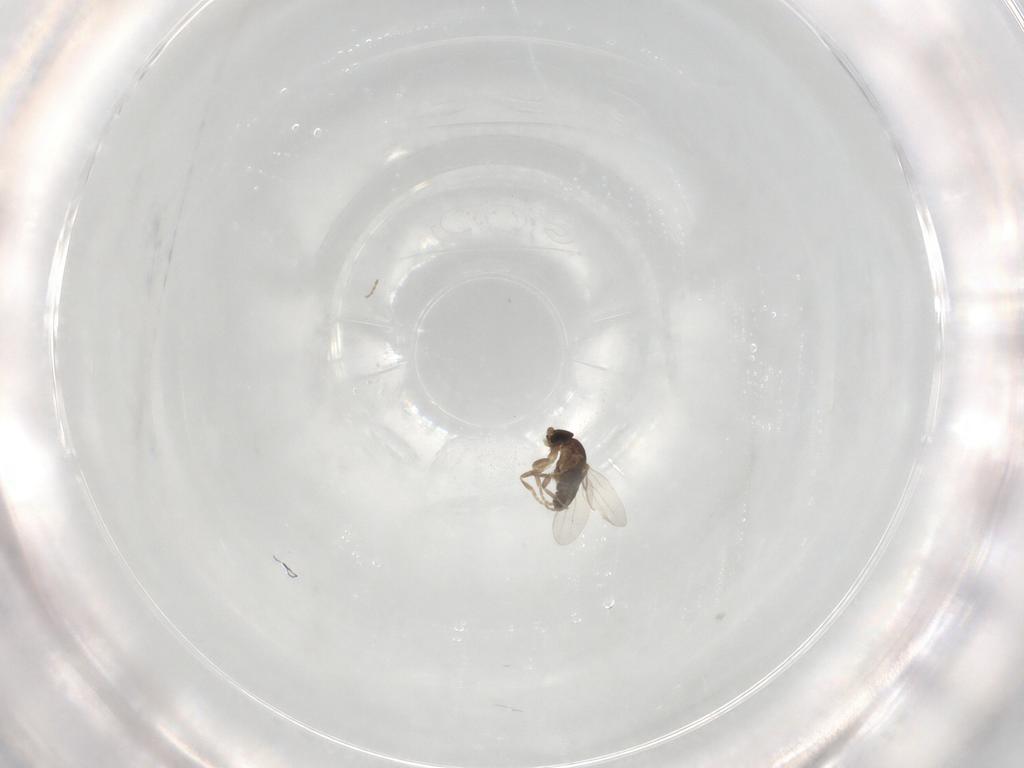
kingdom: Animalia
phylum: Arthropoda
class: Insecta
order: Diptera
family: Phoridae
